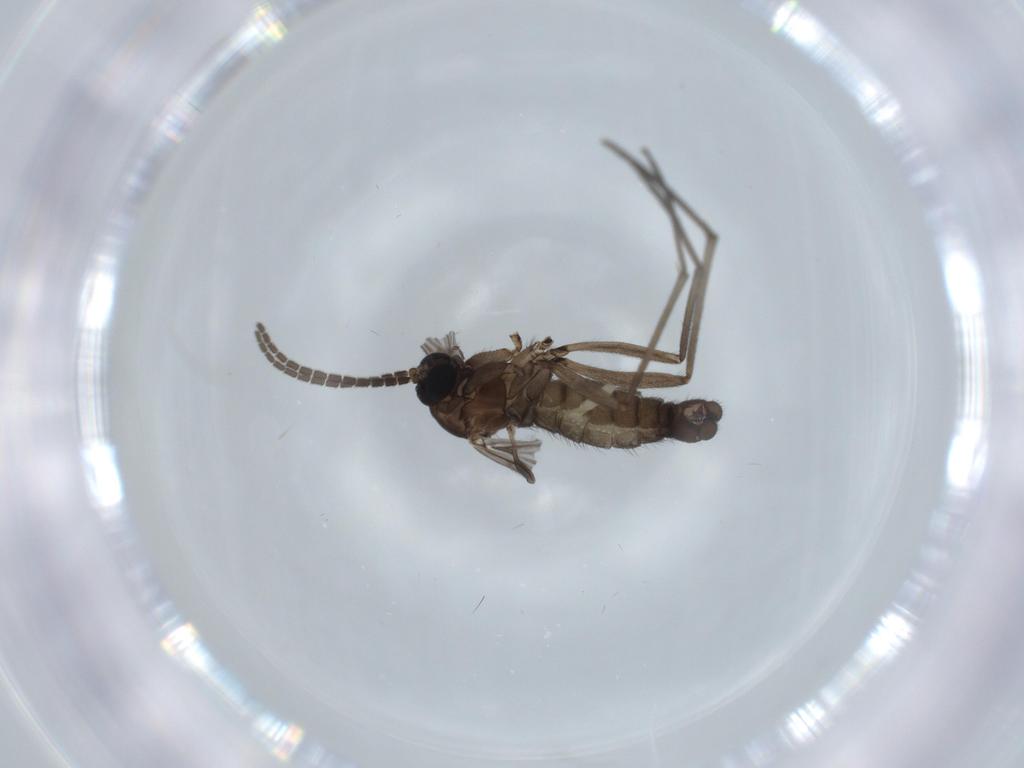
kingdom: Animalia
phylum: Arthropoda
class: Insecta
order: Diptera
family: Sciaridae
